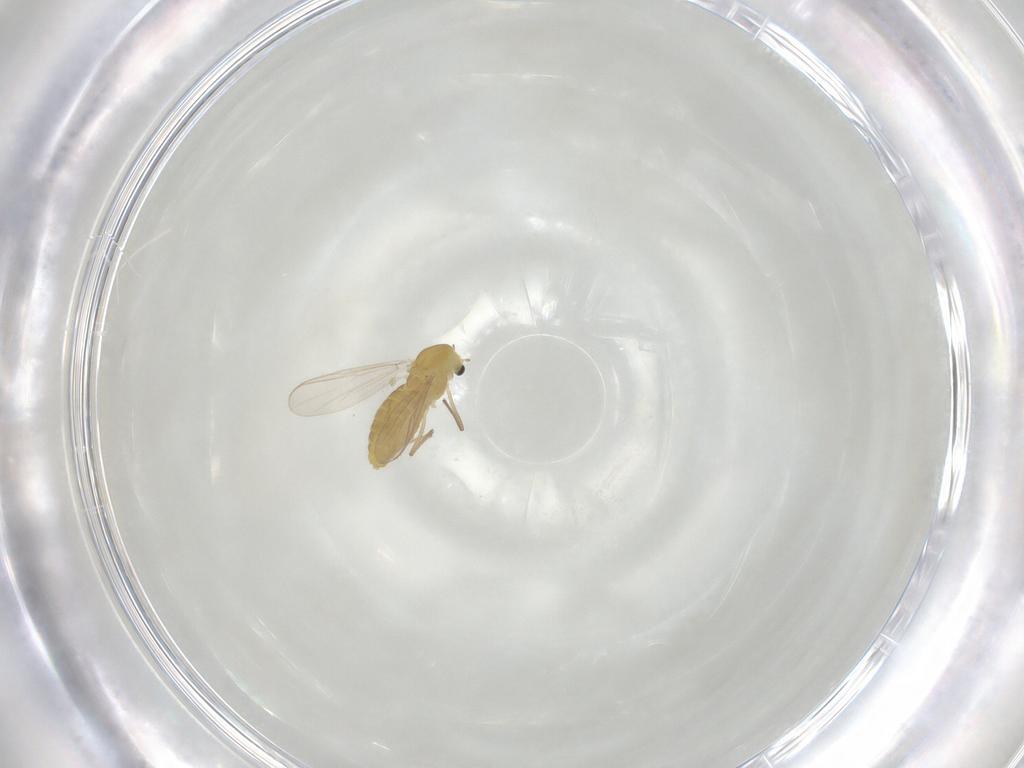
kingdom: Animalia
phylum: Arthropoda
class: Insecta
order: Diptera
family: Chironomidae
